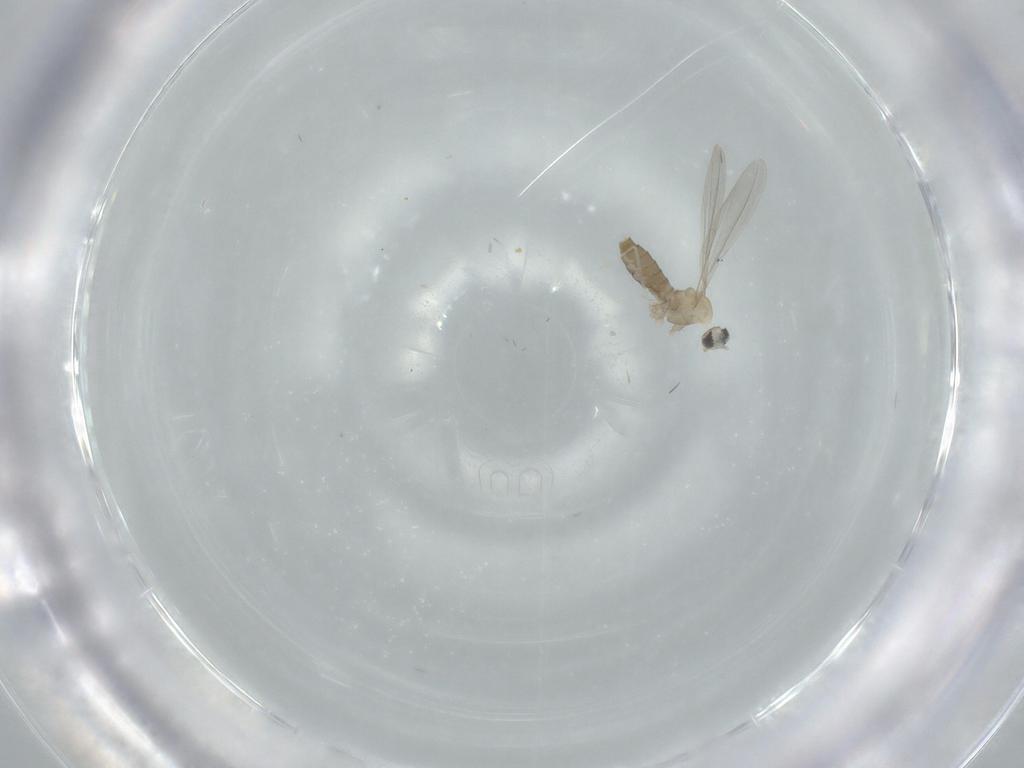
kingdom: Animalia
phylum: Arthropoda
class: Insecta
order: Diptera
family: Cecidomyiidae
